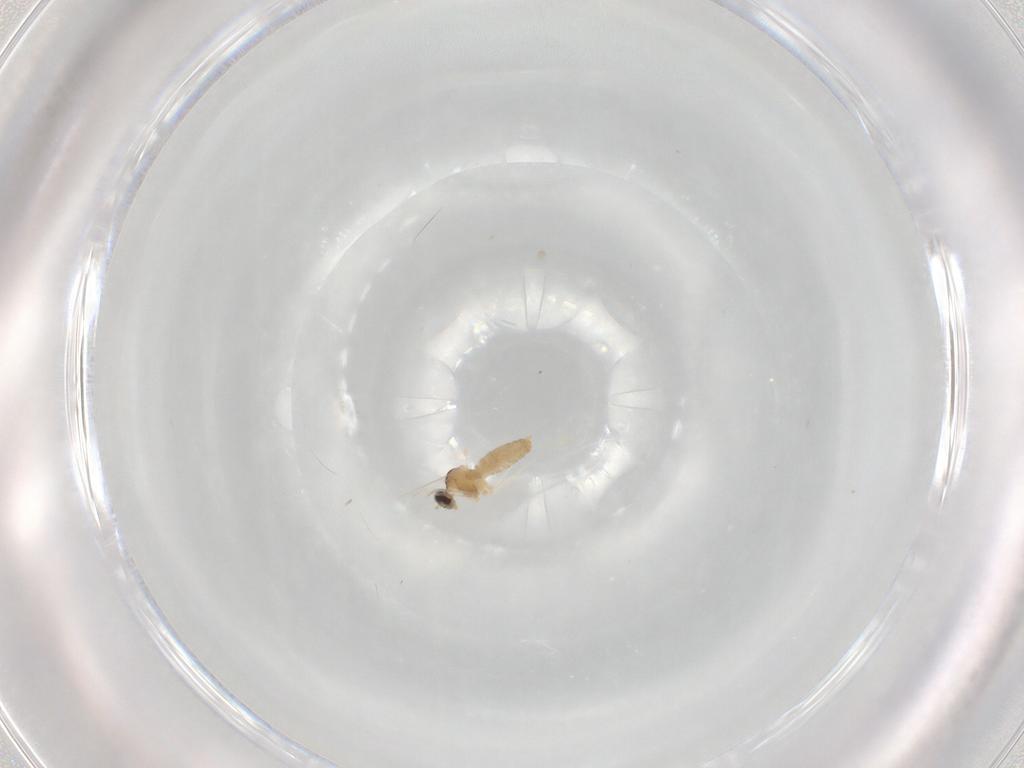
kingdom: Animalia
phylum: Arthropoda
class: Insecta
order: Diptera
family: Cecidomyiidae
